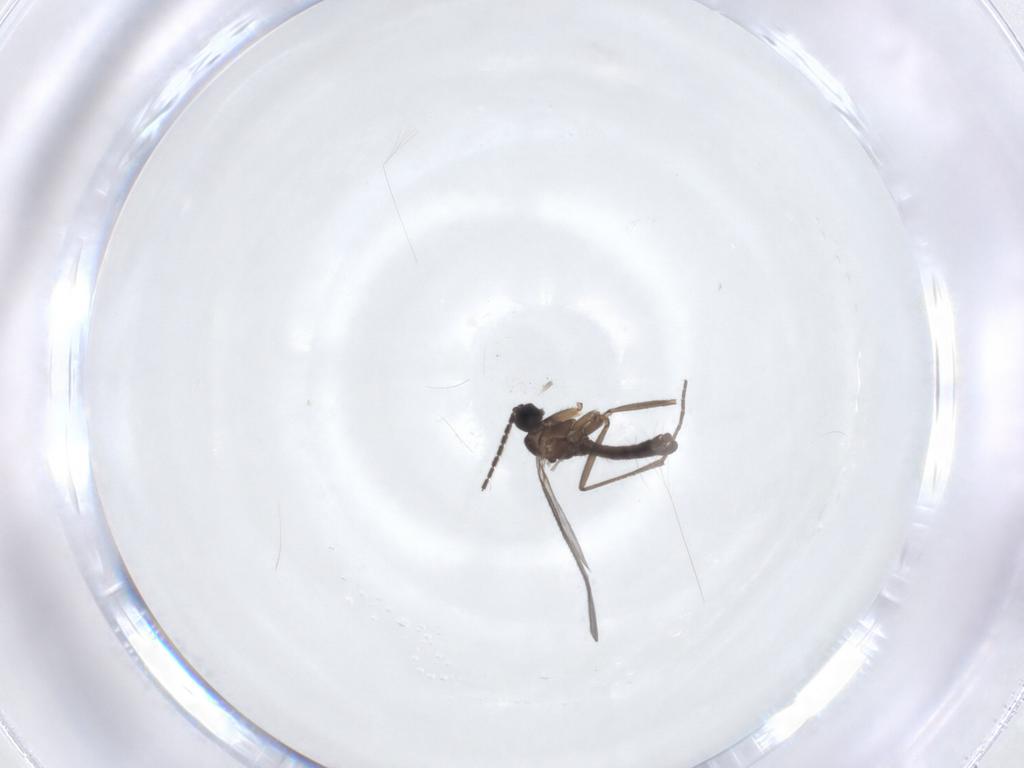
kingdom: Animalia
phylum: Arthropoda
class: Insecta
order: Diptera
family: Sciaridae
